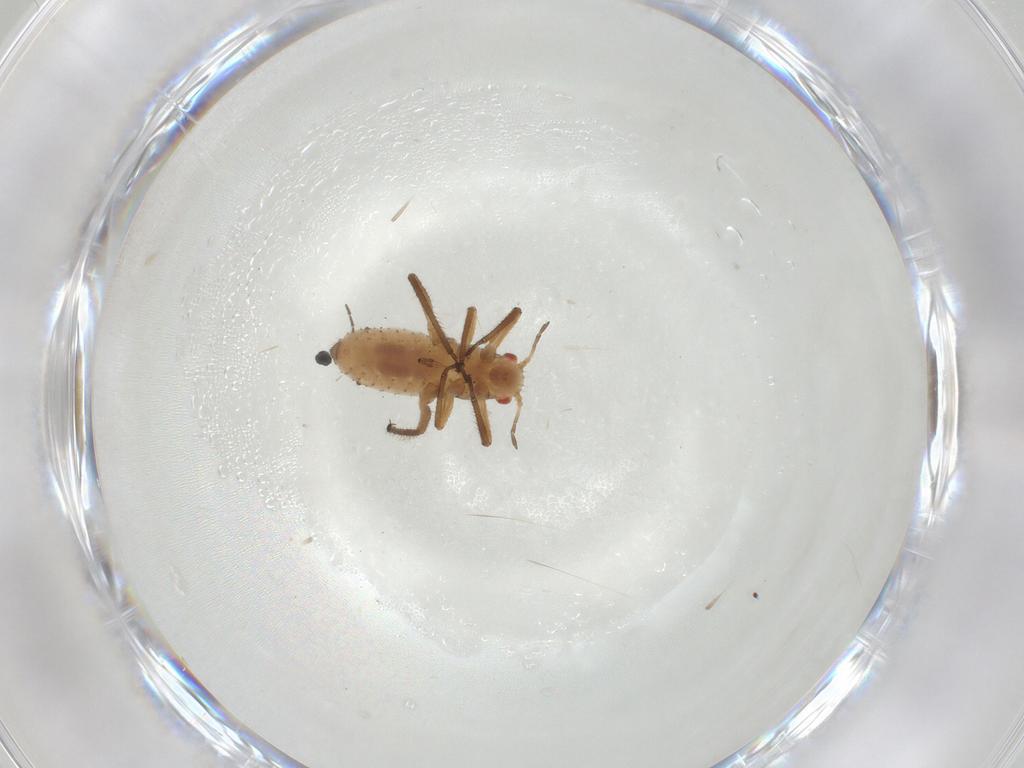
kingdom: Animalia
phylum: Arthropoda
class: Insecta
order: Hemiptera
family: Aphididae
